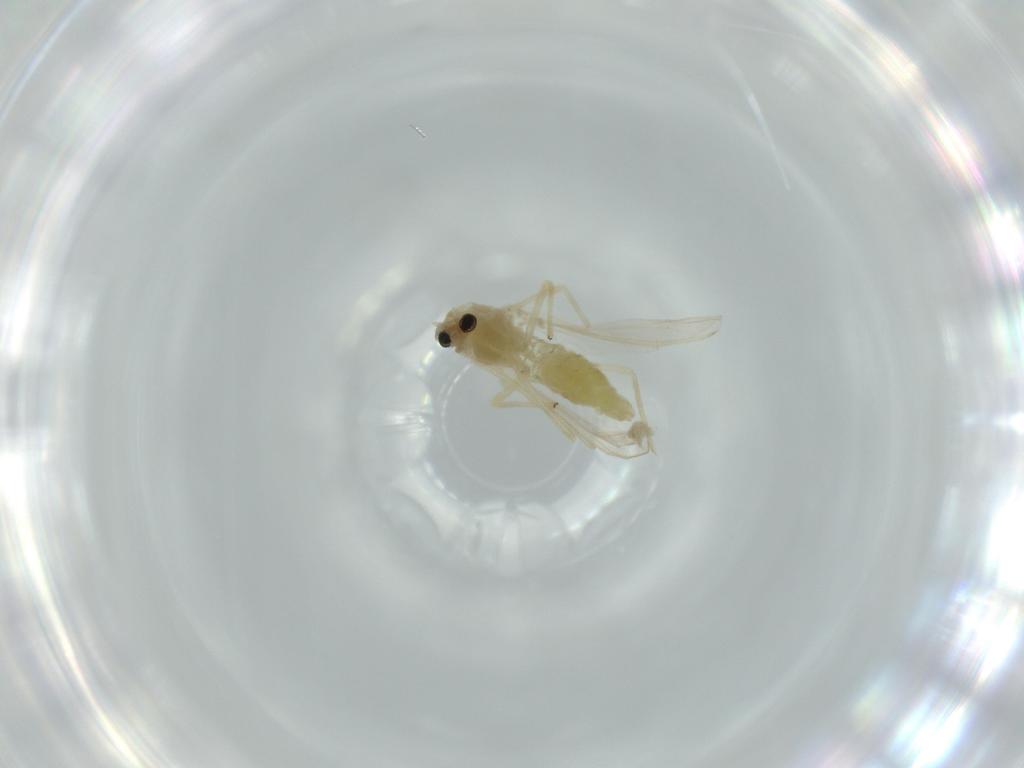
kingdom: Animalia
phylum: Arthropoda
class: Insecta
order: Diptera
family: Chironomidae
